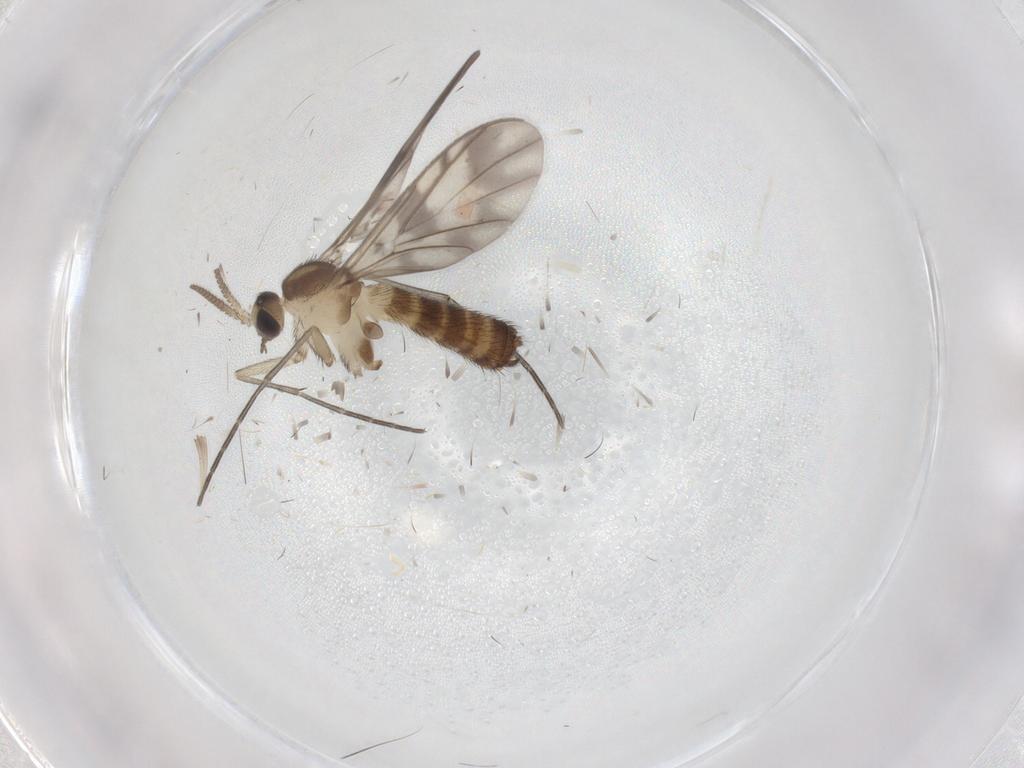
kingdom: Animalia
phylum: Arthropoda
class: Insecta
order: Diptera
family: Keroplatidae
